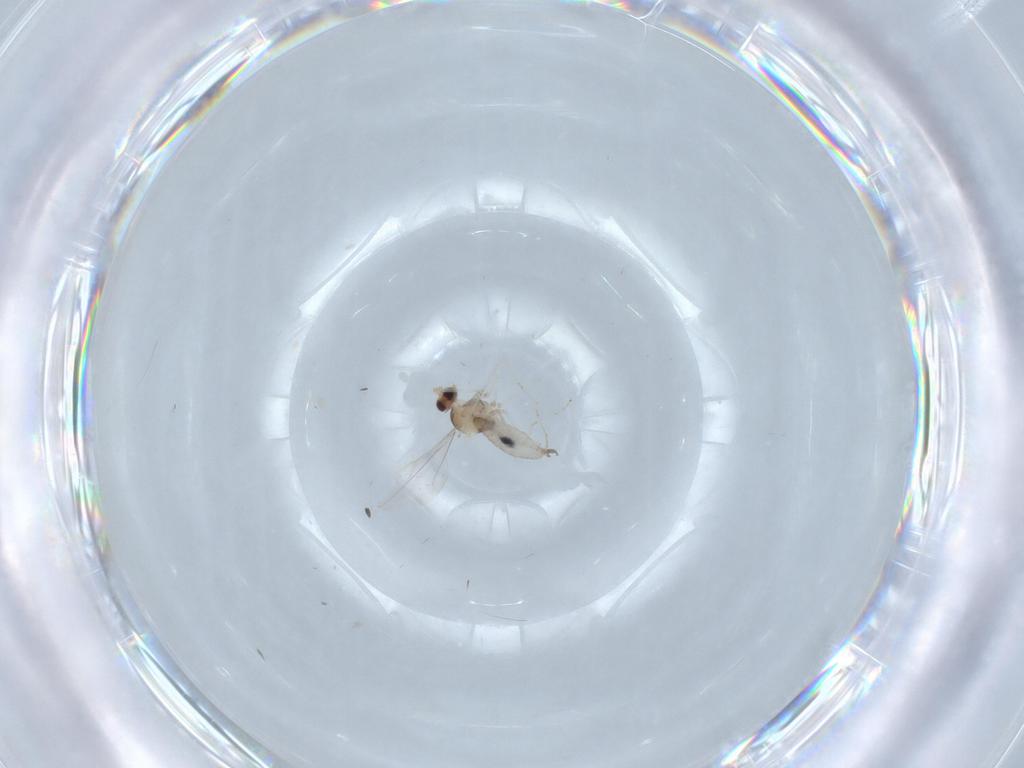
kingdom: Animalia
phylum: Arthropoda
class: Insecta
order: Diptera
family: Cecidomyiidae
